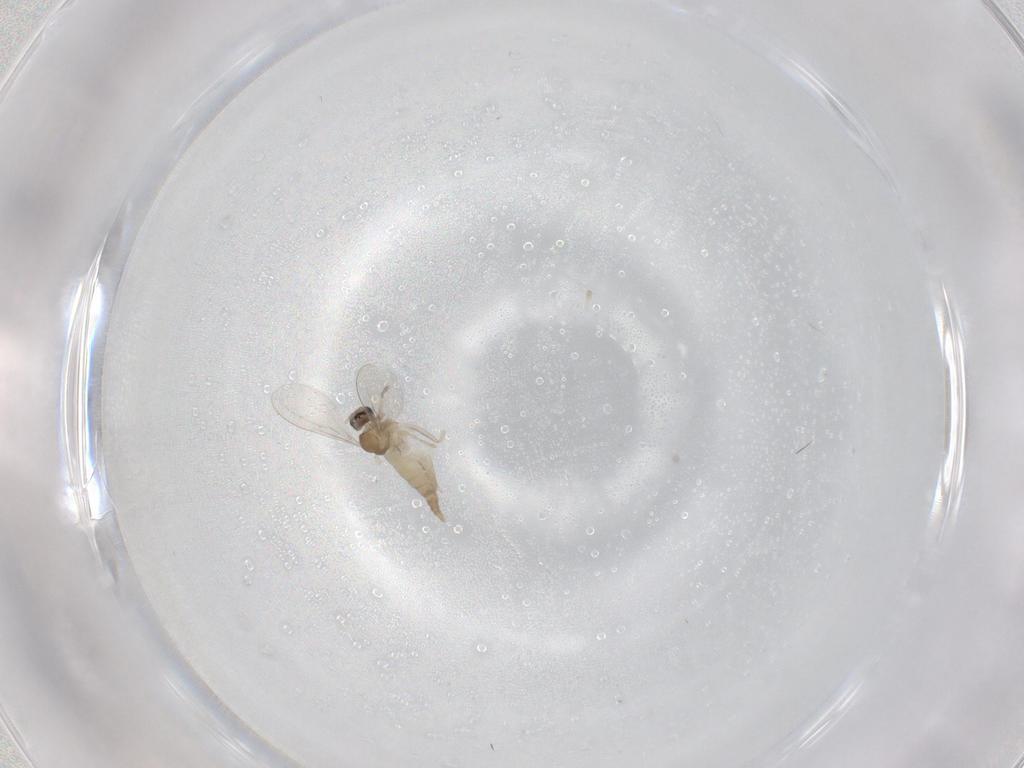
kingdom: Animalia
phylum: Arthropoda
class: Insecta
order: Diptera
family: Cecidomyiidae
